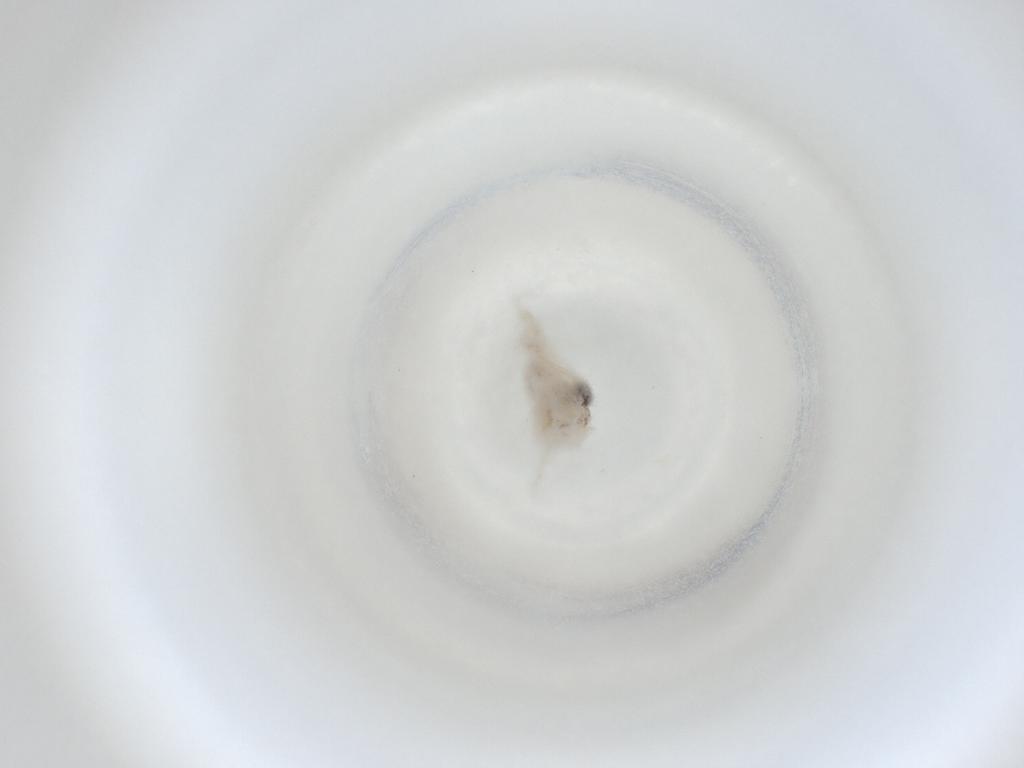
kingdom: Animalia
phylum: Arthropoda
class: Insecta
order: Diptera
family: Cecidomyiidae
